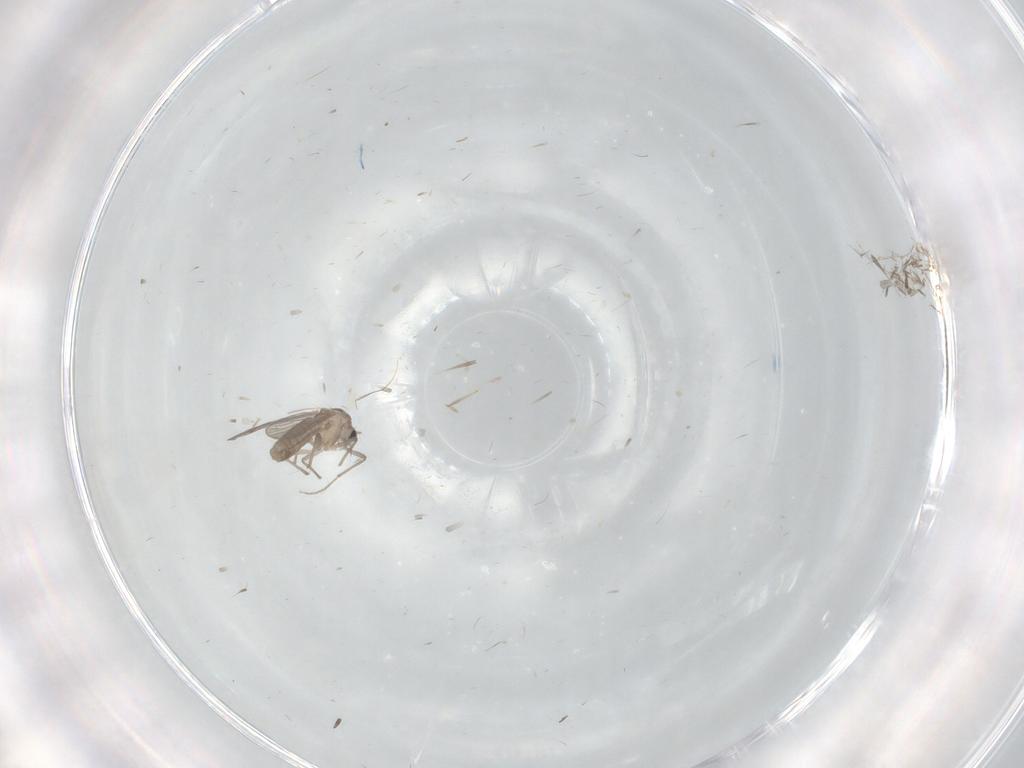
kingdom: Animalia
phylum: Arthropoda
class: Insecta
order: Diptera
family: Chironomidae
